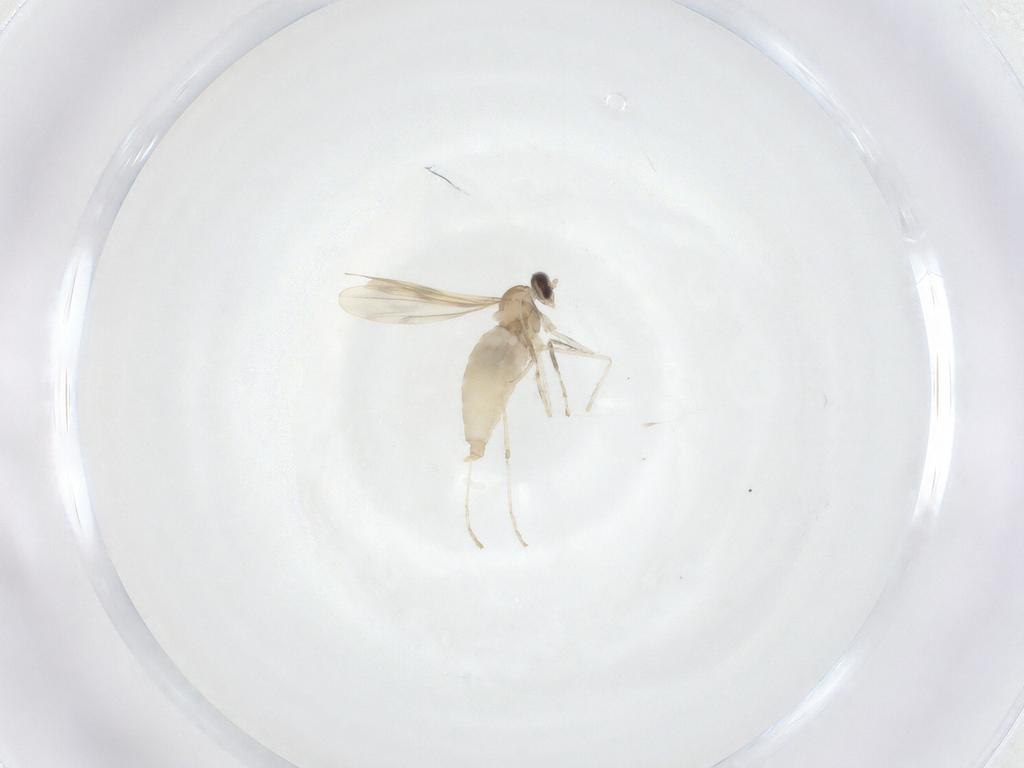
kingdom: Animalia
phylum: Arthropoda
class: Insecta
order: Diptera
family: Cecidomyiidae
